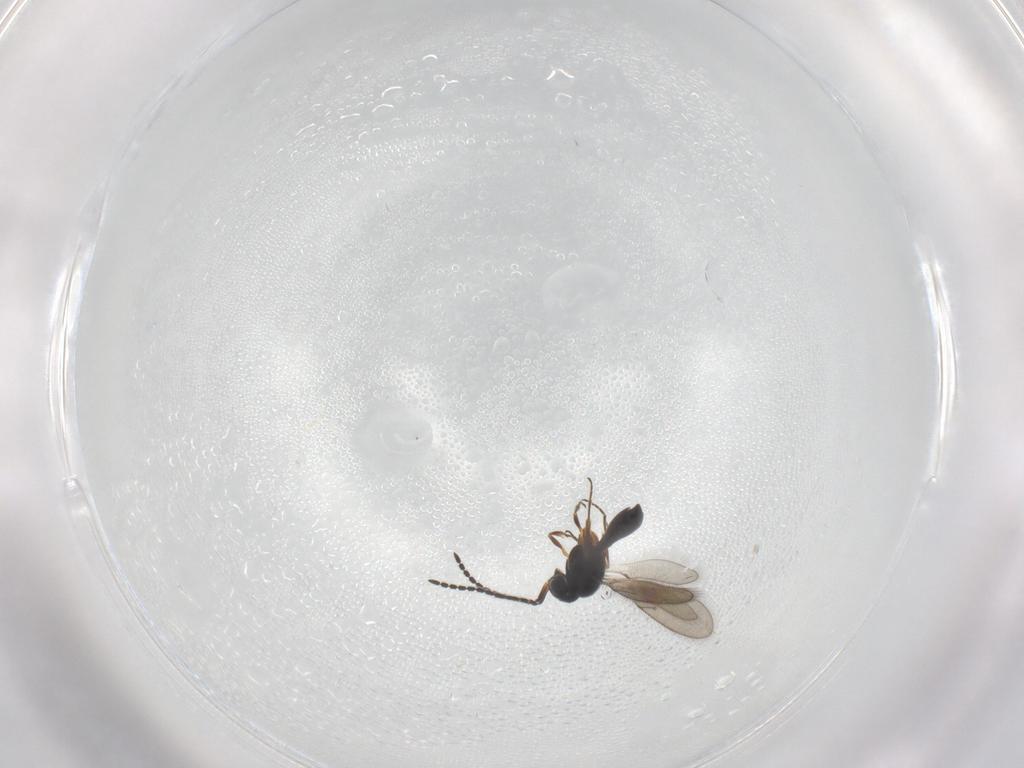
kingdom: Animalia
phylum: Arthropoda
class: Insecta
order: Hymenoptera
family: Scelionidae
